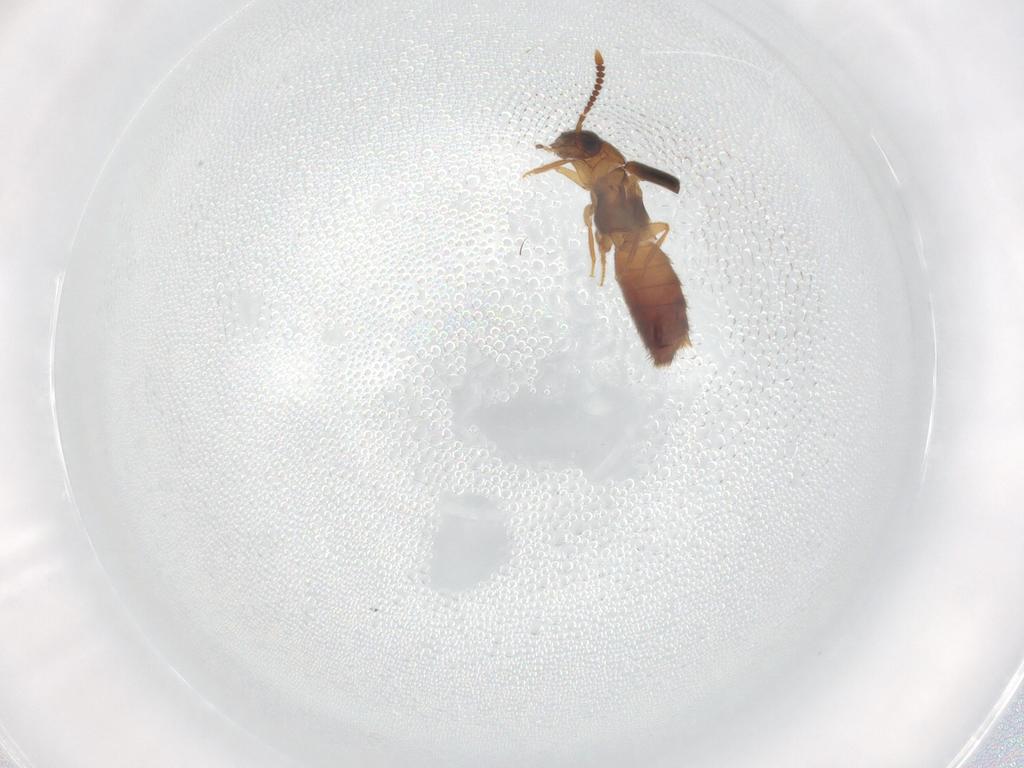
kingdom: Animalia
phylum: Arthropoda
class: Insecta
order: Coleoptera
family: Staphylinidae
